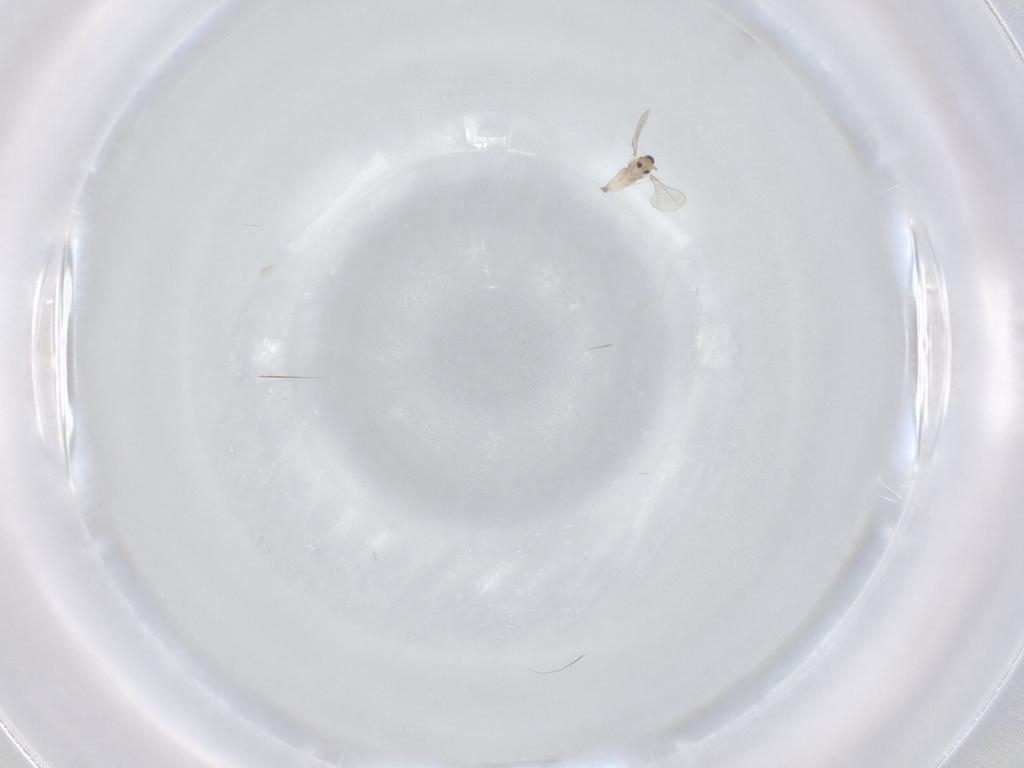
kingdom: Animalia
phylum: Arthropoda
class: Insecta
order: Diptera
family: Cecidomyiidae
